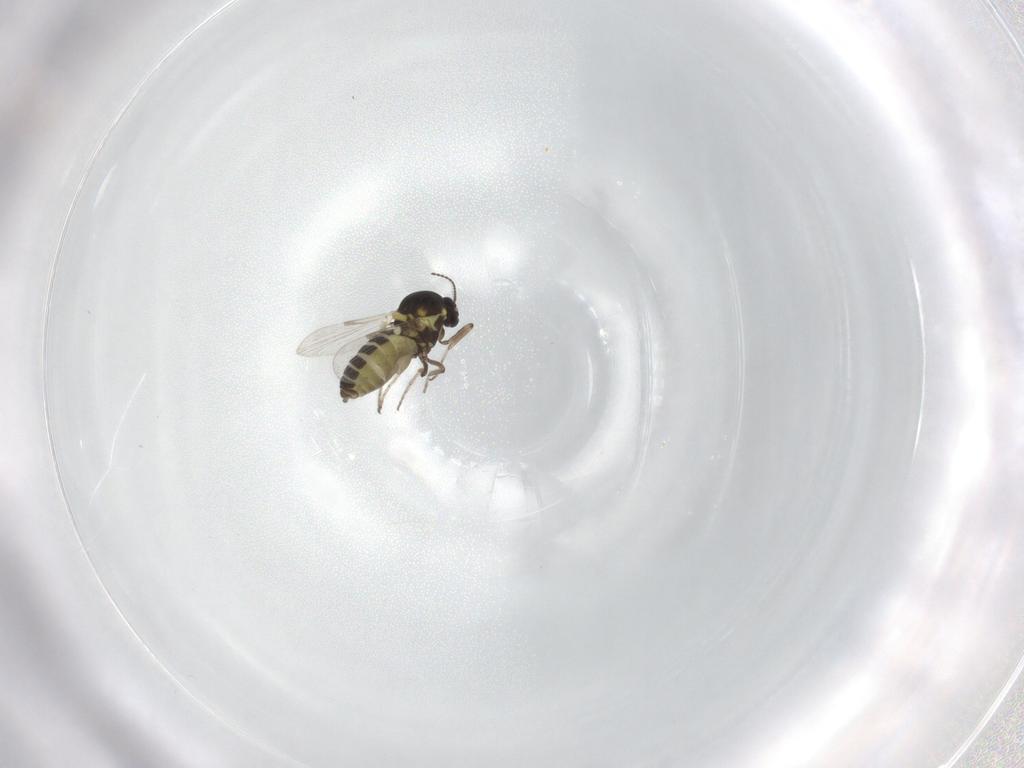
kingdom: Animalia
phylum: Arthropoda
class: Insecta
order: Diptera
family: Ceratopogonidae
